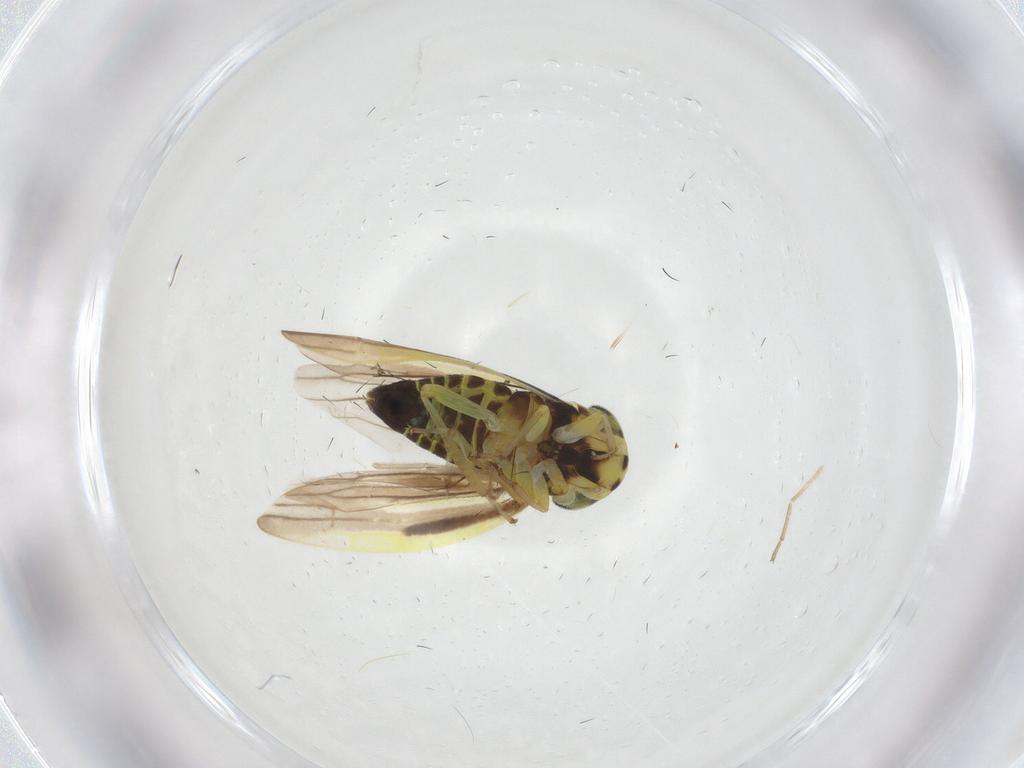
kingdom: Animalia
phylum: Arthropoda
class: Insecta
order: Hemiptera
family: Cicadellidae
